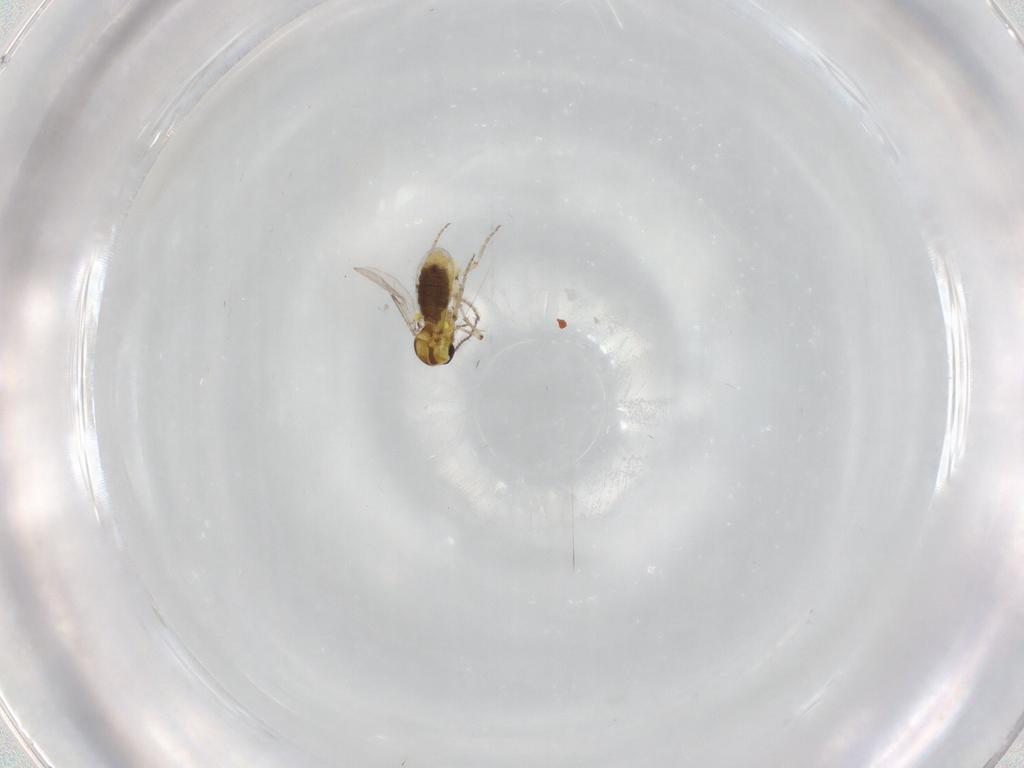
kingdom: Animalia
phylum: Arthropoda
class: Insecta
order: Diptera
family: Ceratopogonidae
